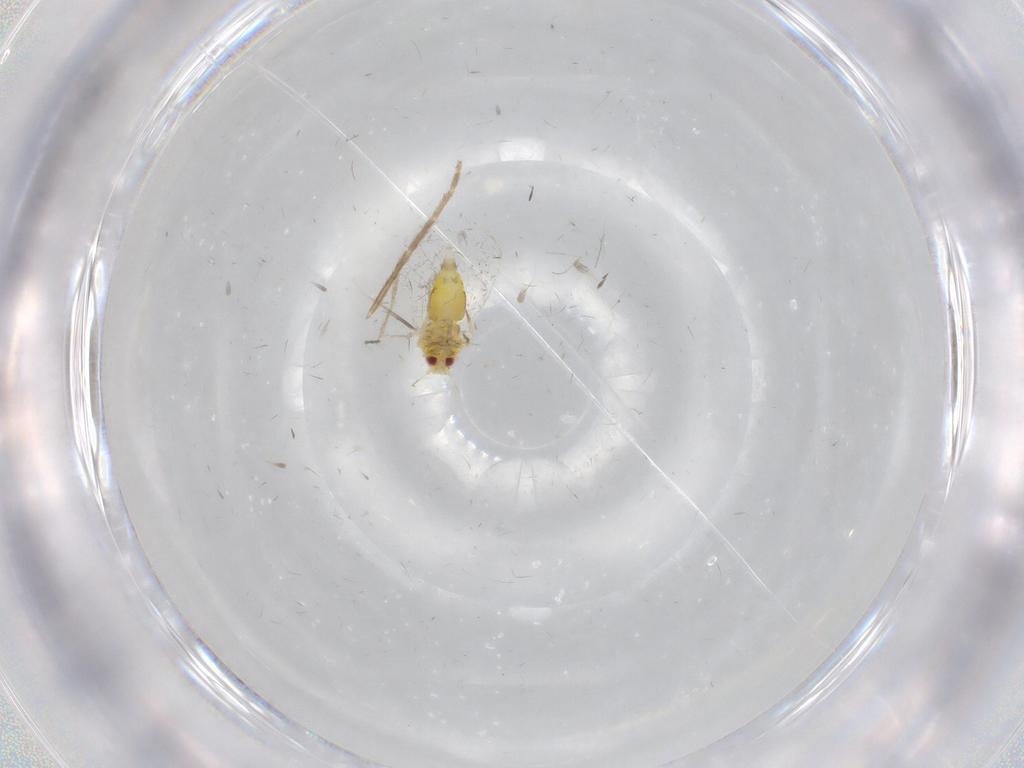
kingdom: Animalia
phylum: Arthropoda
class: Insecta
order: Hemiptera
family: Aleyrodidae
